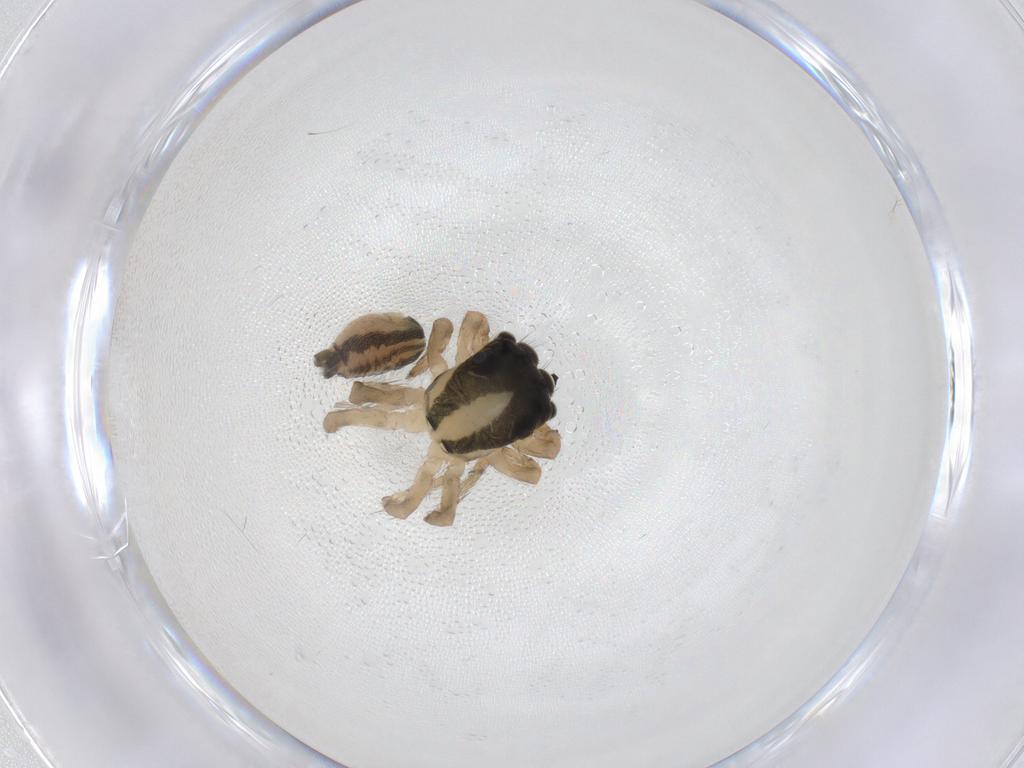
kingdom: Animalia
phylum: Arthropoda
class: Arachnida
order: Araneae
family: Salticidae
